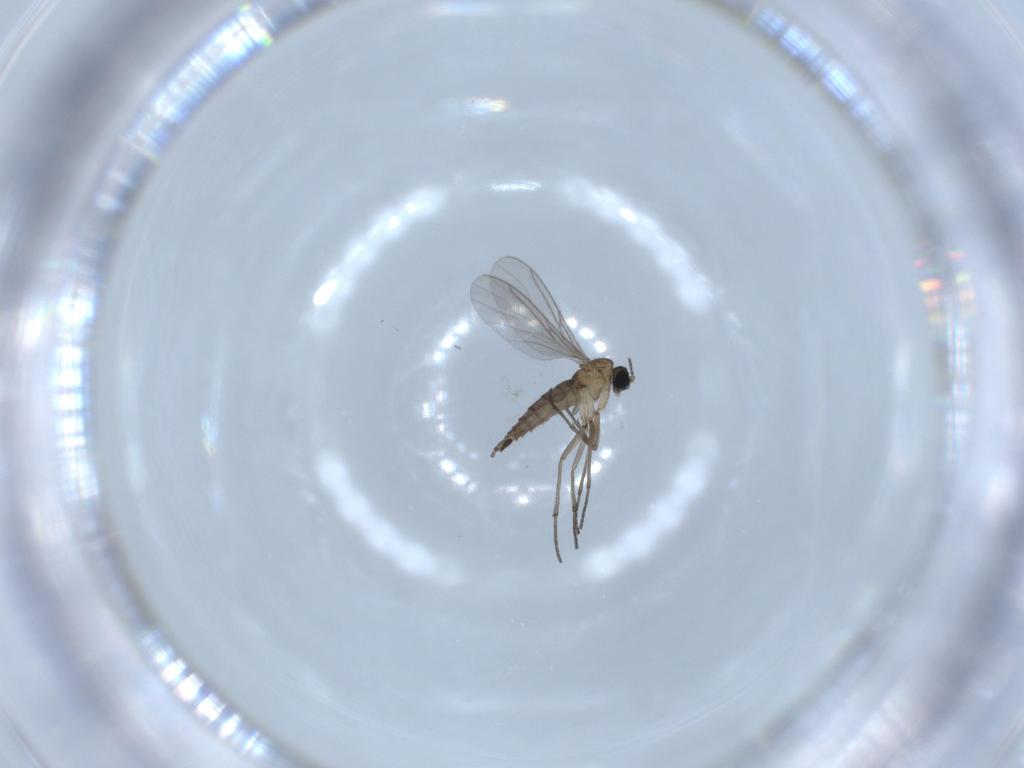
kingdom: Animalia
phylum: Arthropoda
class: Insecta
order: Diptera
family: Sciaridae
